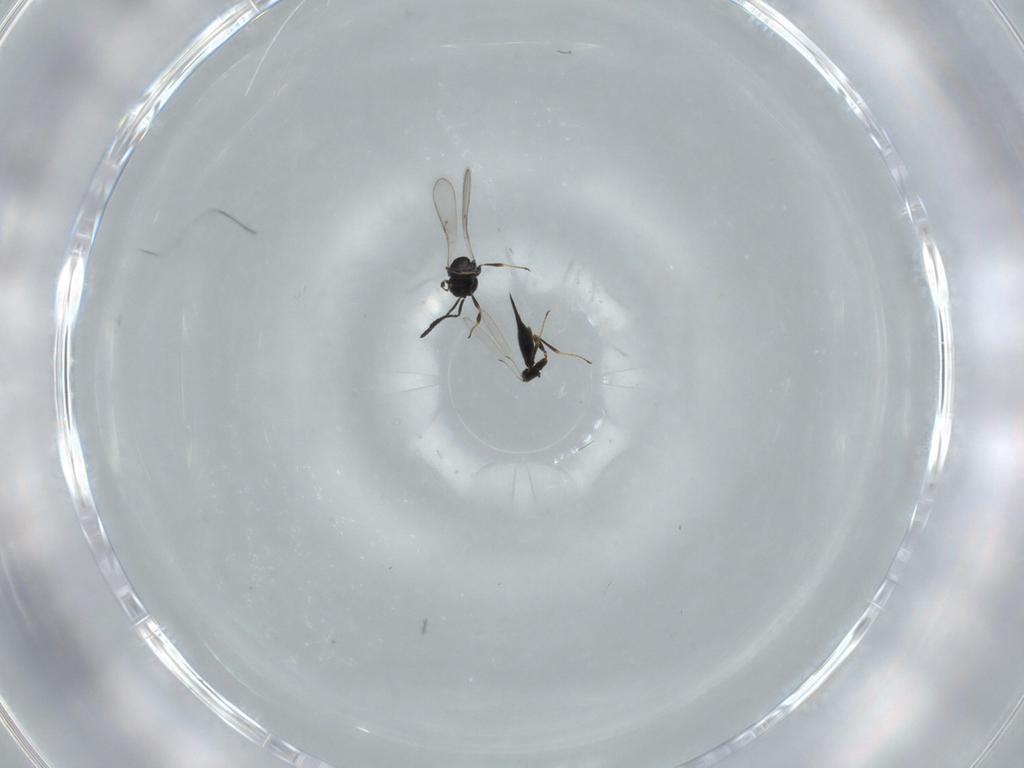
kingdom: Animalia
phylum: Arthropoda
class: Insecta
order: Hymenoptera
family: Scelionidae
